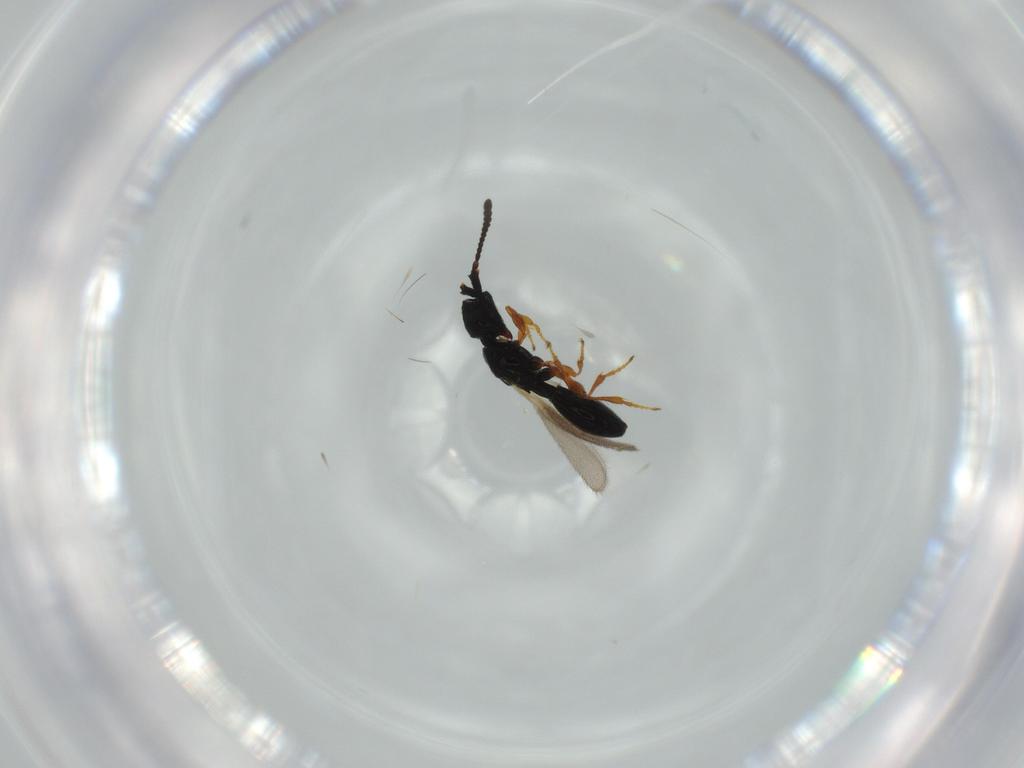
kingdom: Animalia
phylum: Arthropoda
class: Insecta
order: Hymenoptera
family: Diapriidae
